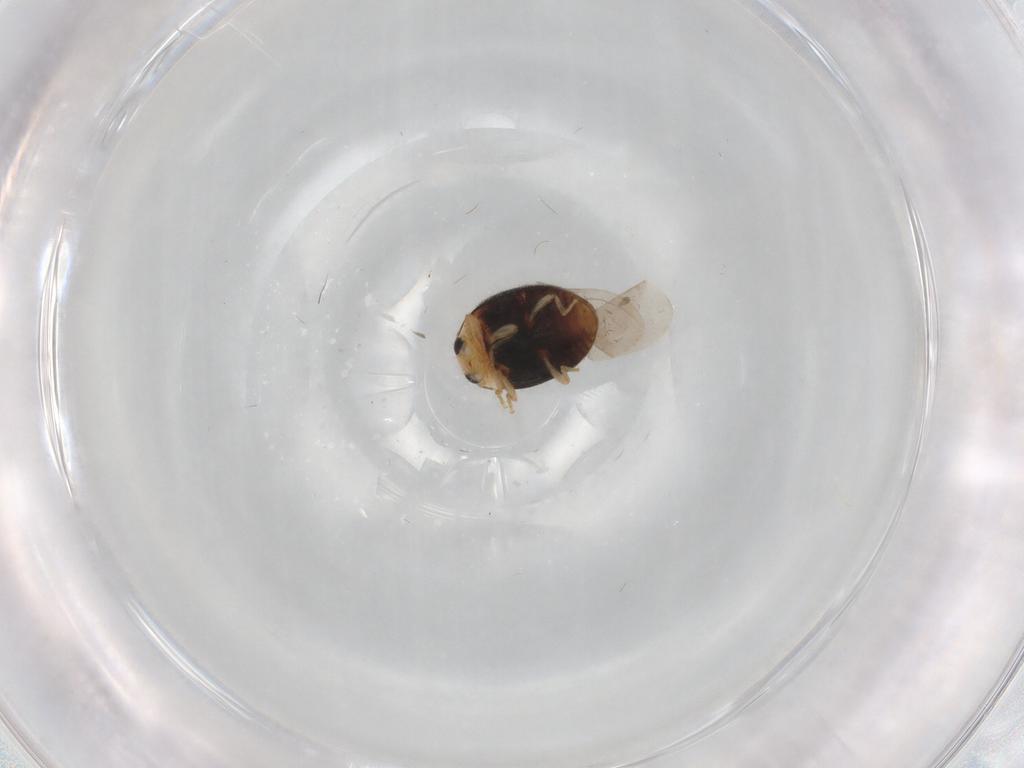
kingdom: Animalia
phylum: Arthropoda
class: Insecta
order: Coleoptera
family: Coccinellidae
